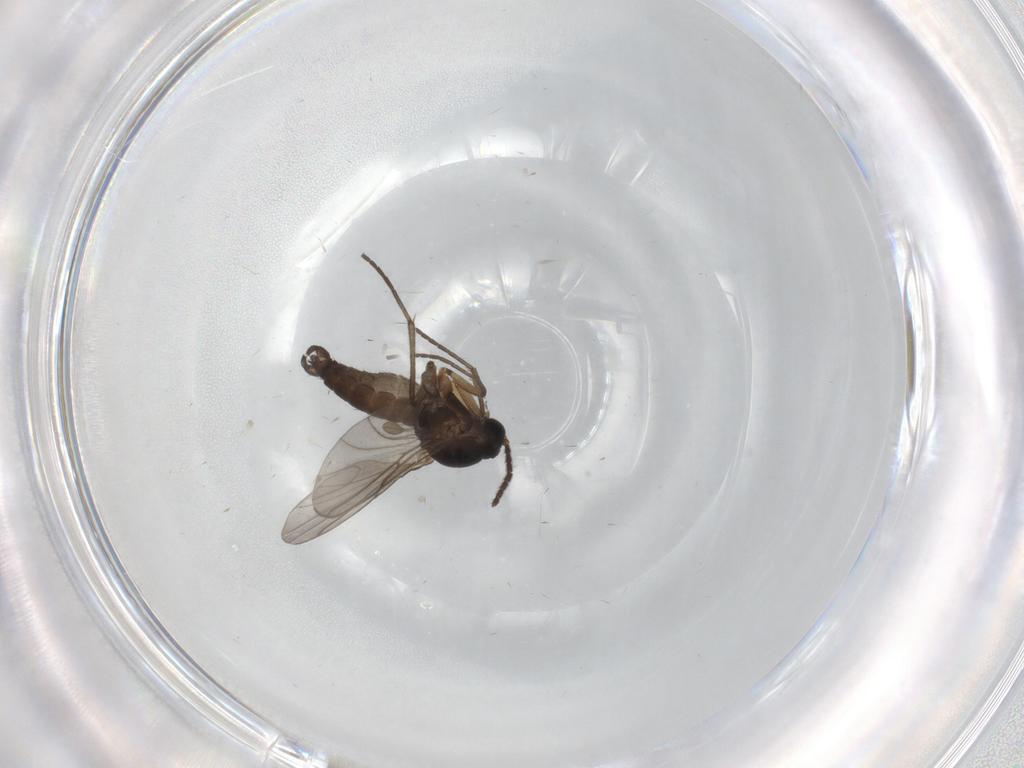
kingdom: Animalia
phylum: Arthropoda
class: Insecta
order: Diptera
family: Sciaridae
